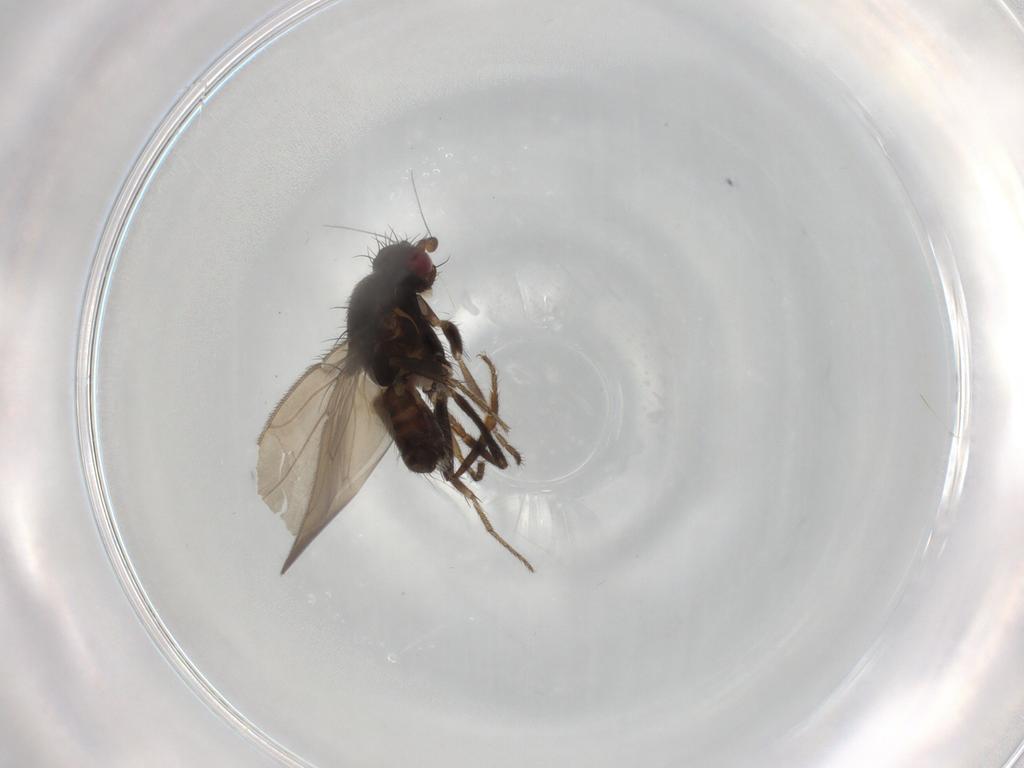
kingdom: Animalia
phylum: Arthropoda
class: Insecta
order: Diptera
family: Sphaeroceridae
